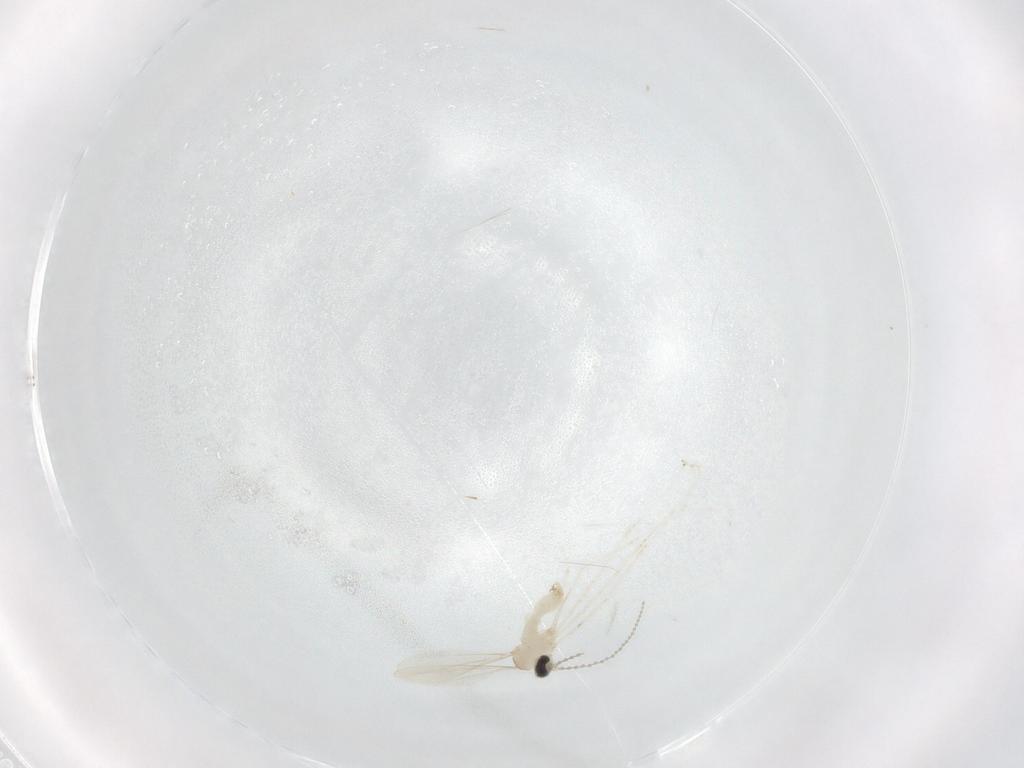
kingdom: Animalia
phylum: Arthropoda
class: Insecta
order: Diptera
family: Cecidomyiidae
